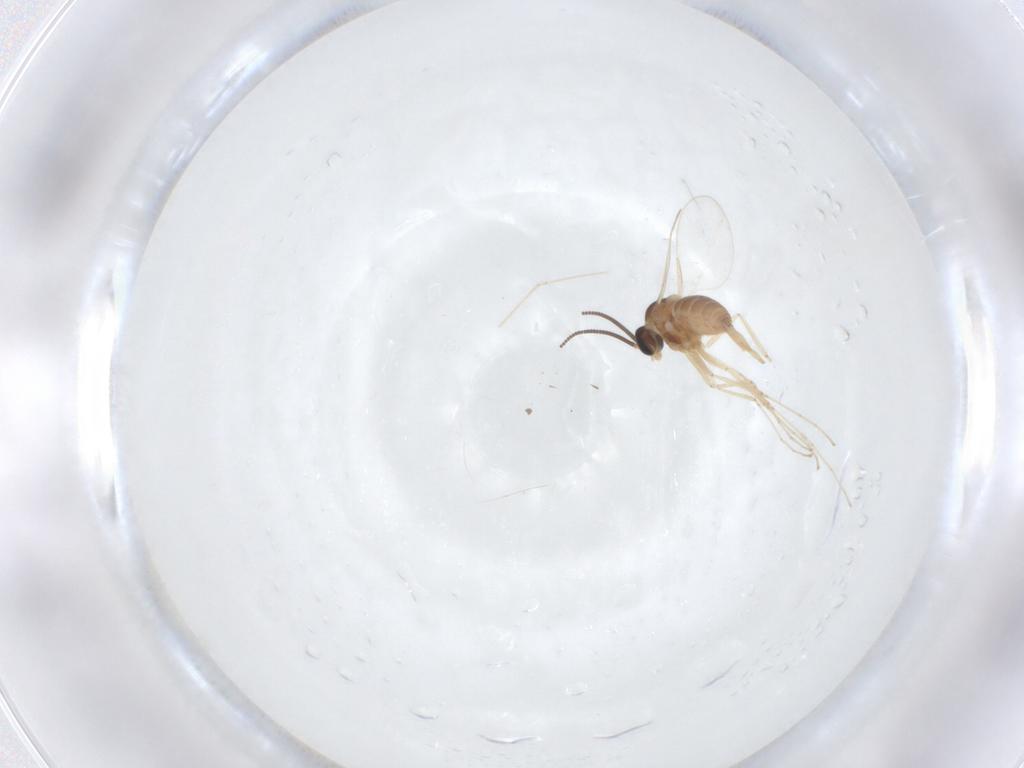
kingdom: Animalia
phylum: Arthropoda
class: Insecta
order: Diptera
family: Cecidomyiidae
